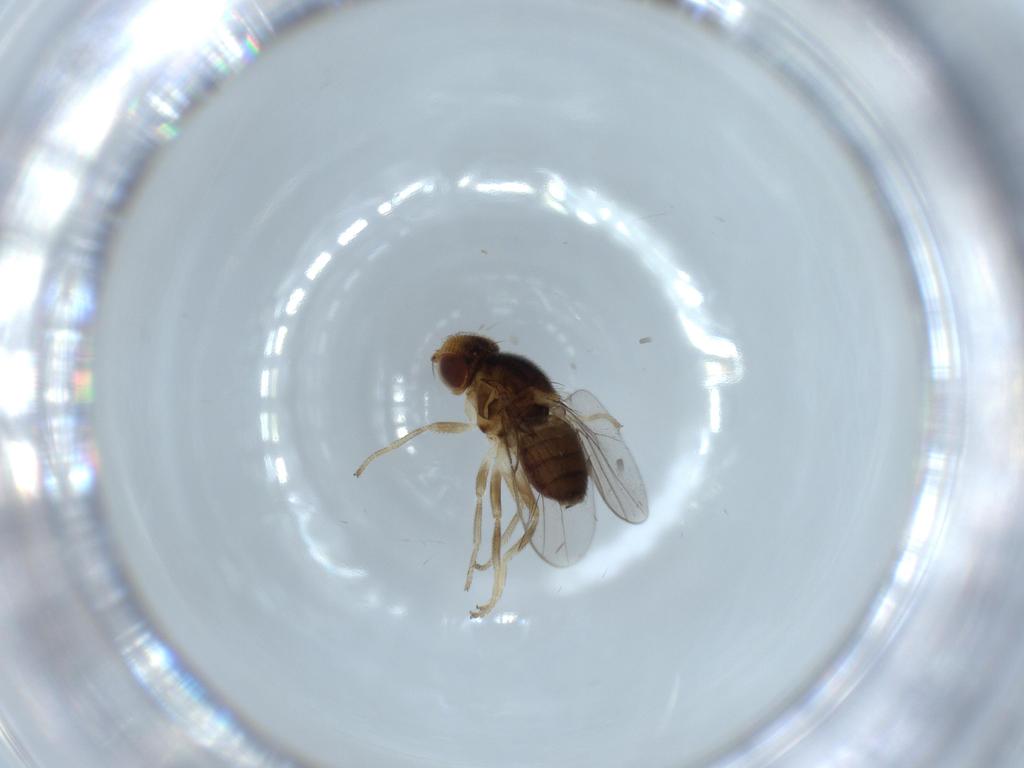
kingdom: Animalia
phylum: Arthropoda
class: Insecta
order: Diptera
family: Chloropidae
